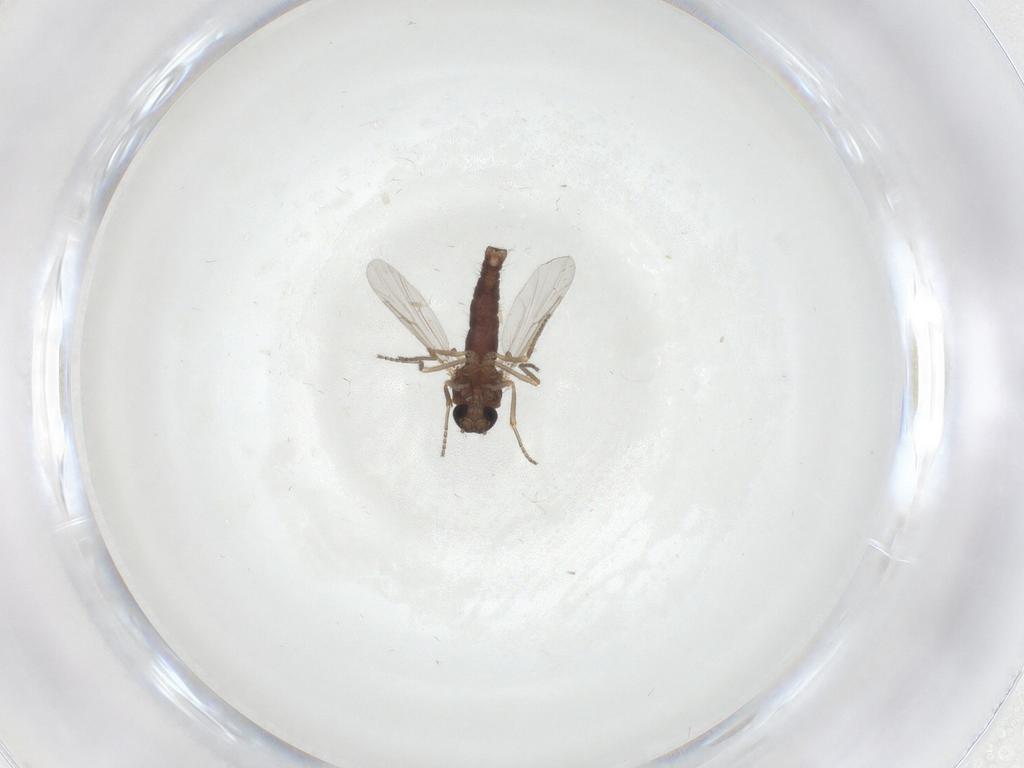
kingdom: Animalia
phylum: Arthropoda
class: Insecta
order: Diptera
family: Ceratopogonidae
